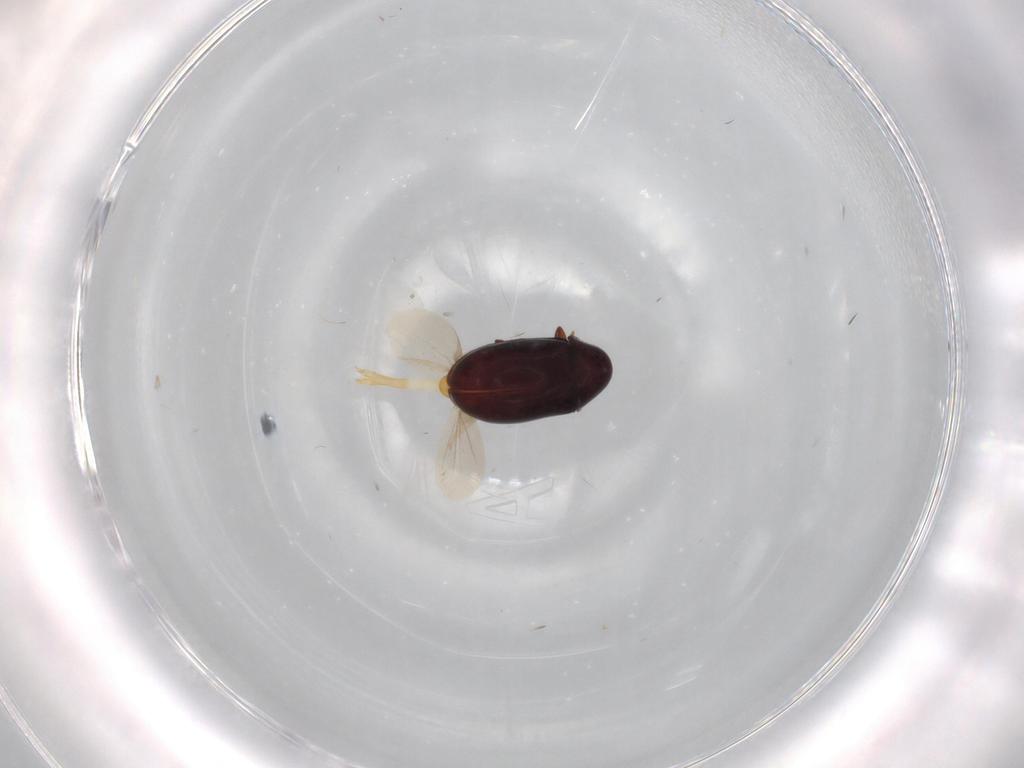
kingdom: Animalia
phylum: Arthropoda
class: Insecta
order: Coleoptera
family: Ptinidae
